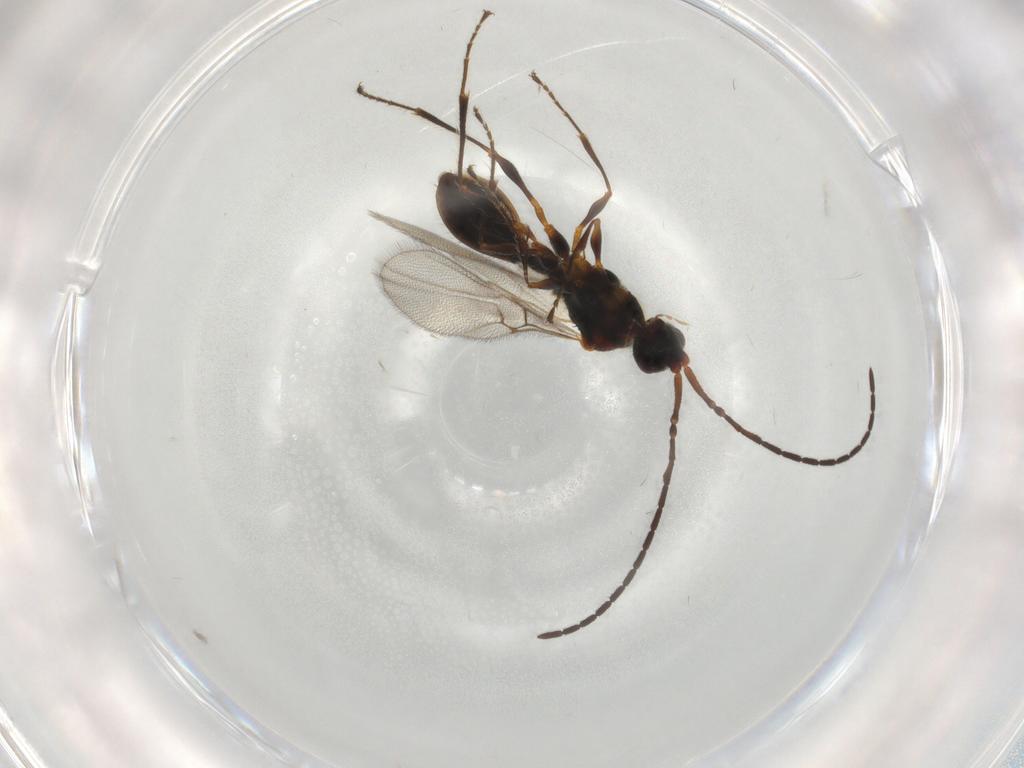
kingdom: Animalia
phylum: Arthropoda
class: Insecta
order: Hymenoptera
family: Diapriidae
